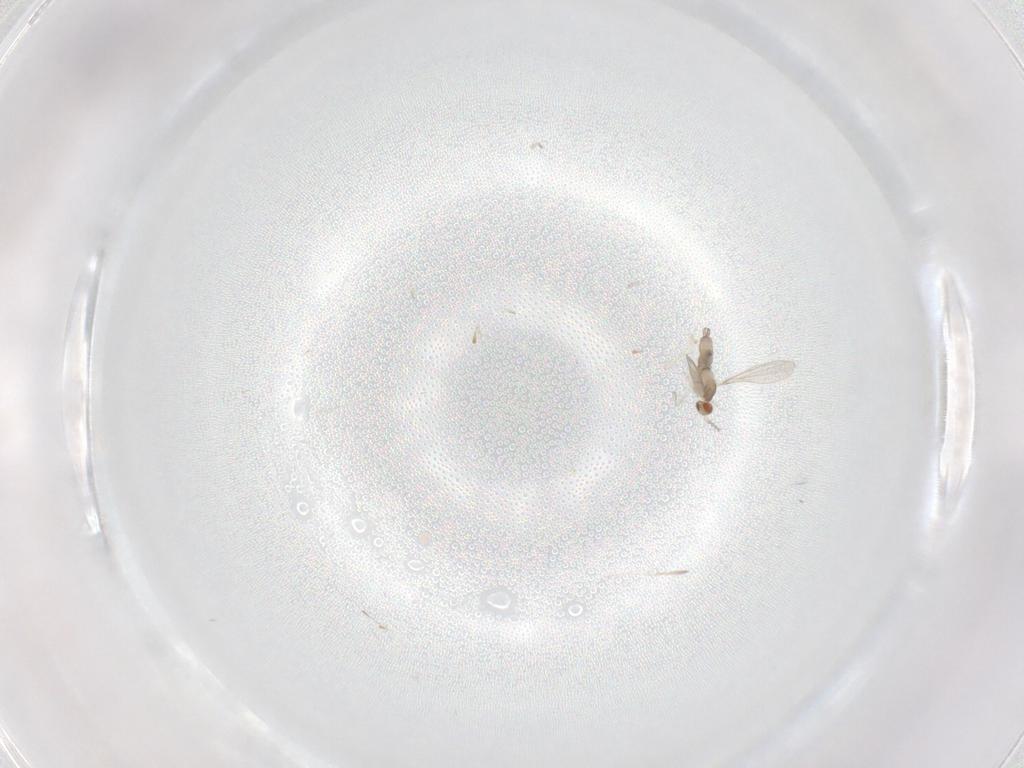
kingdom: Animalia
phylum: Arthropoda
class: Insecta
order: Diptera
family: Cecidomyiidae
